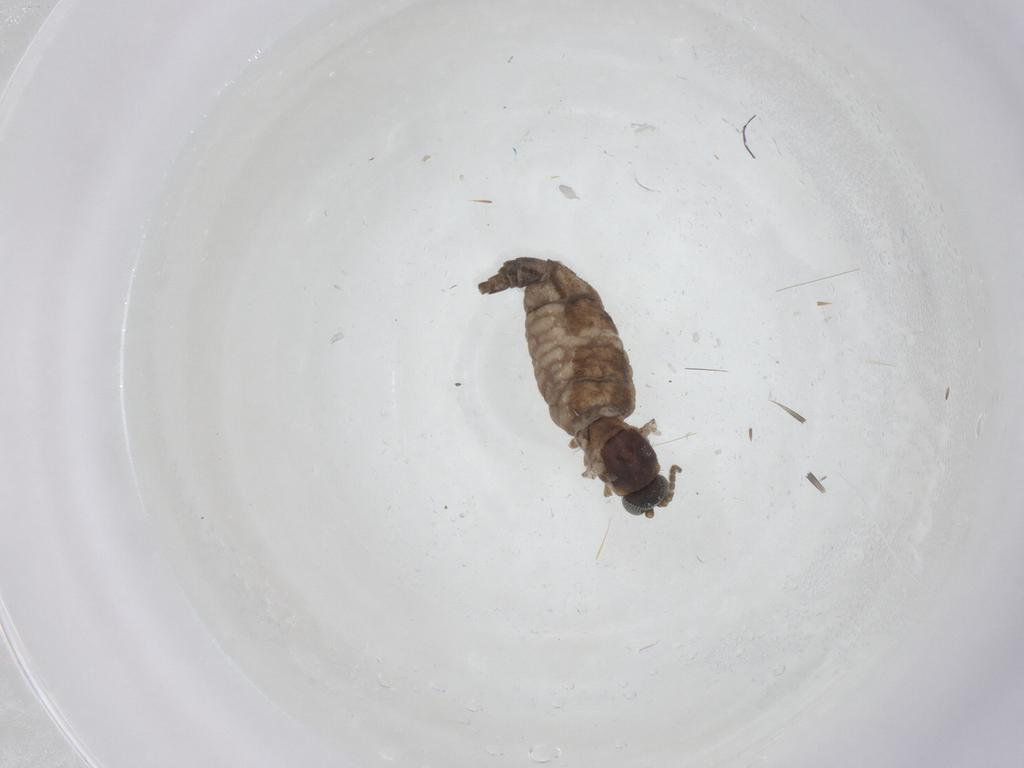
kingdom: Animalia
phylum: Arthropoda
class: Insecta
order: Diptera
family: Sciaridae
